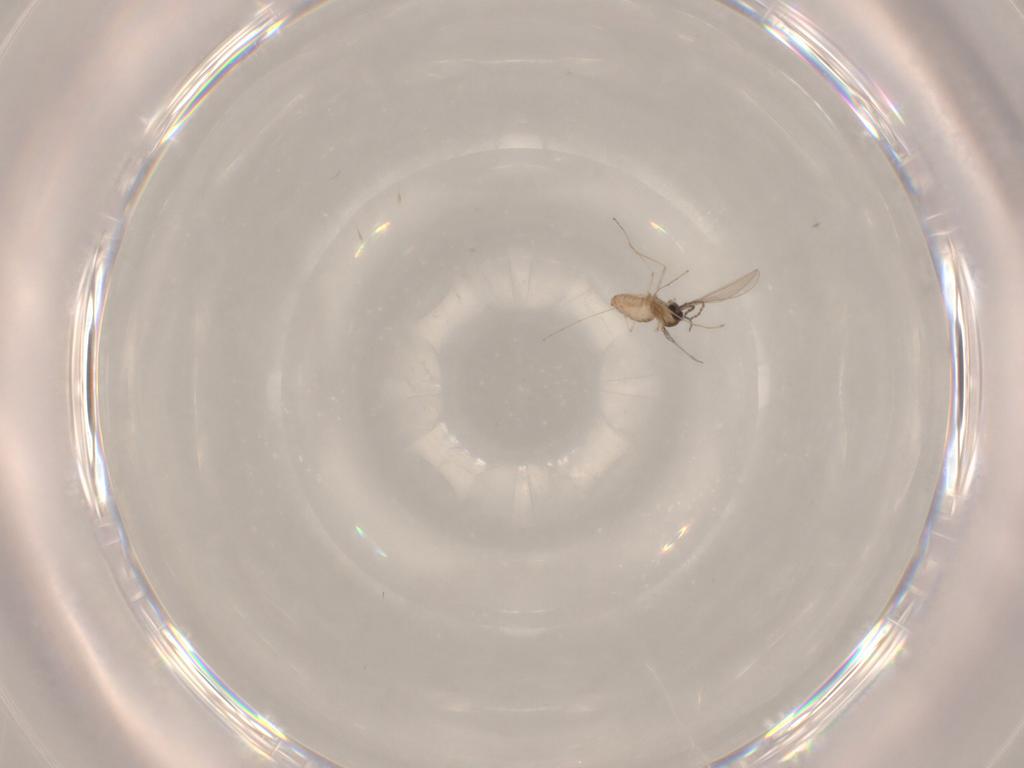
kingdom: Animalia
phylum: Arthropoda
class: Insecta
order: Diptera
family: Cecidomyiidae
